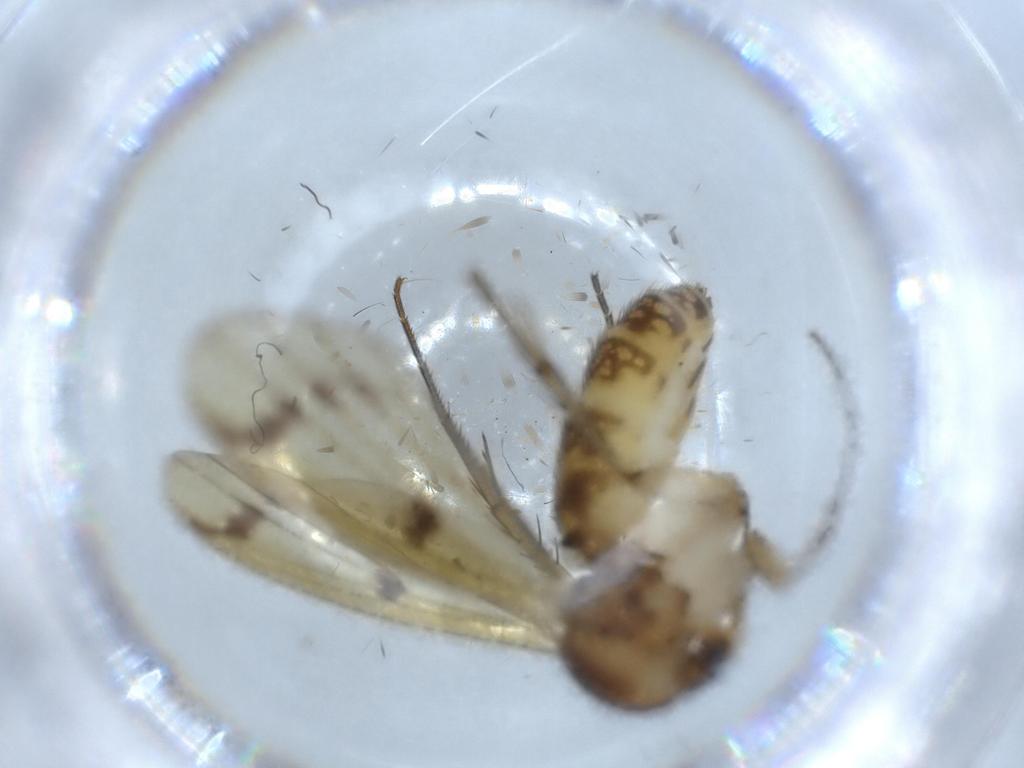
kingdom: Animalia
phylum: Arthropoda
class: Insecta
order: Diptera
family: Mycetophilidae
